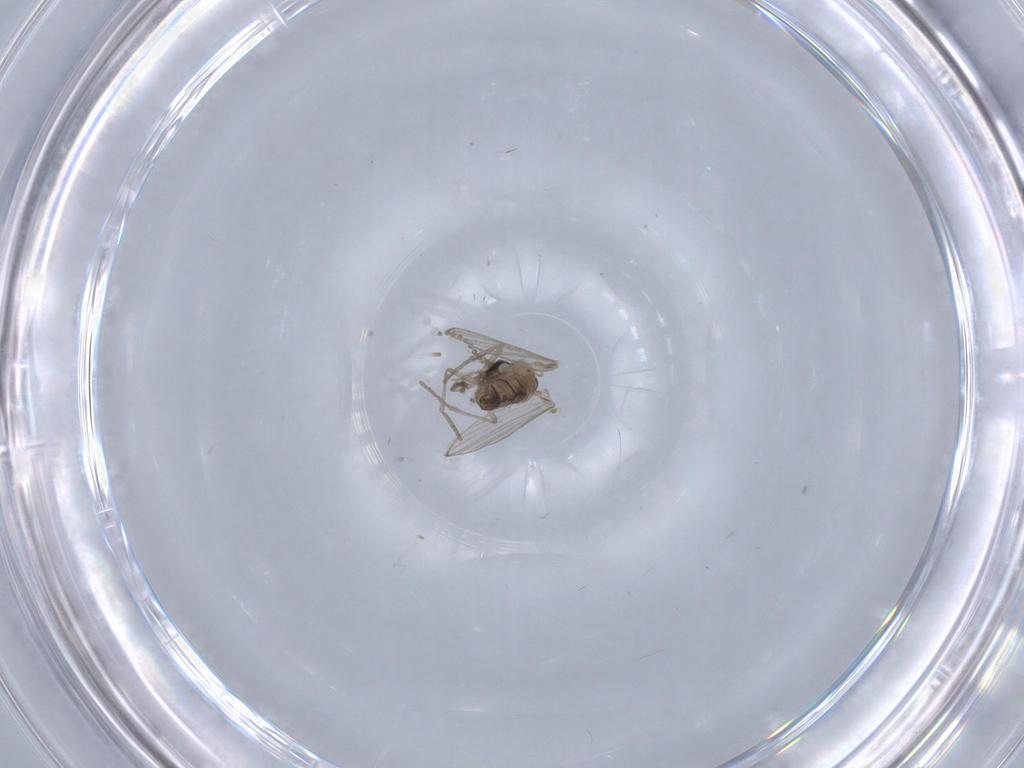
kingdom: Animalia
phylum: Arthropoda
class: Insecta
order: Diptera
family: Psychodidae
